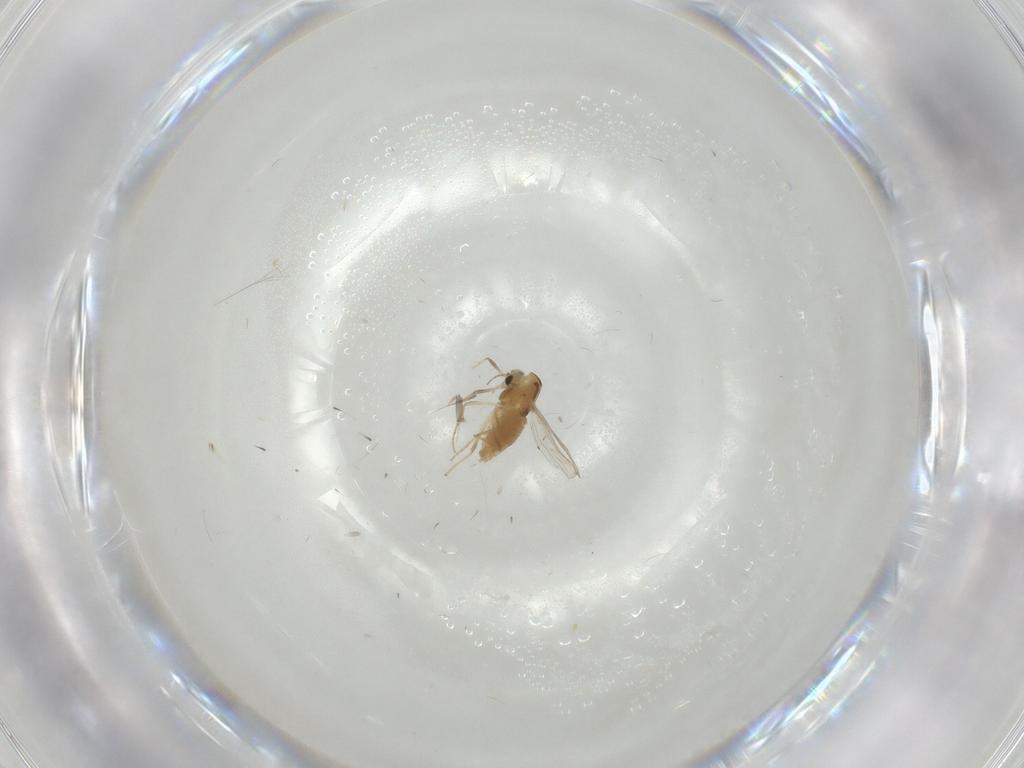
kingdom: Animalia
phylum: Arthropoda
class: Insecta
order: Diptera
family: Chironomidae
